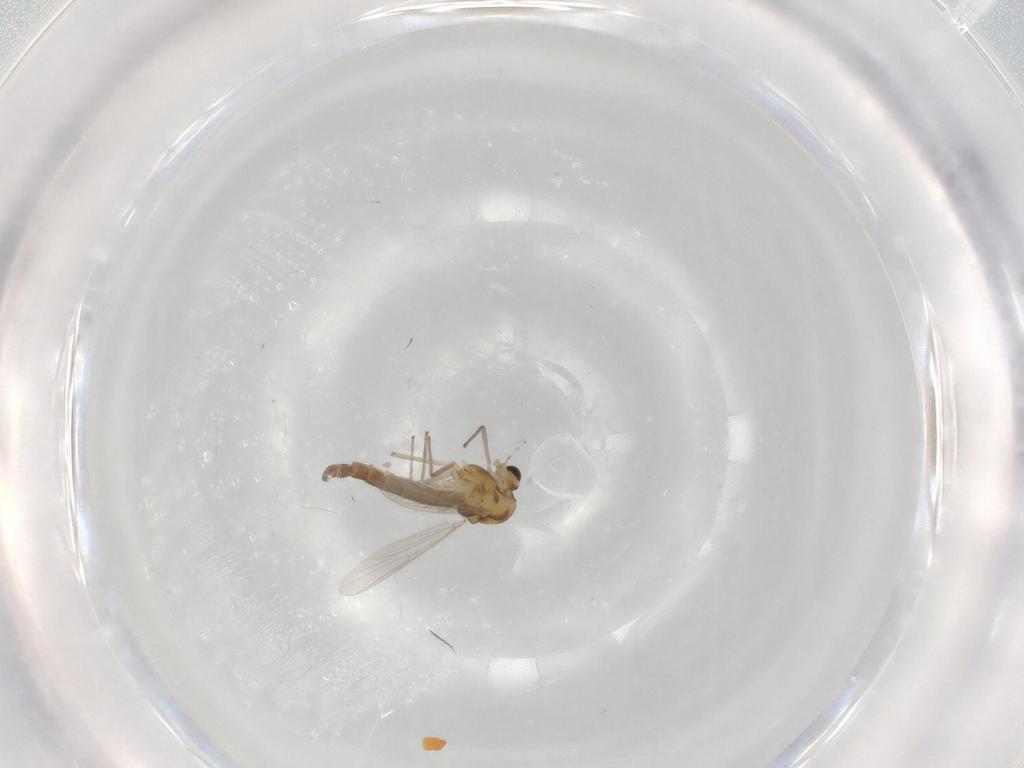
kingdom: Animalia
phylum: Arthropoda
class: Insecta
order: Diptera
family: Chironomidae
